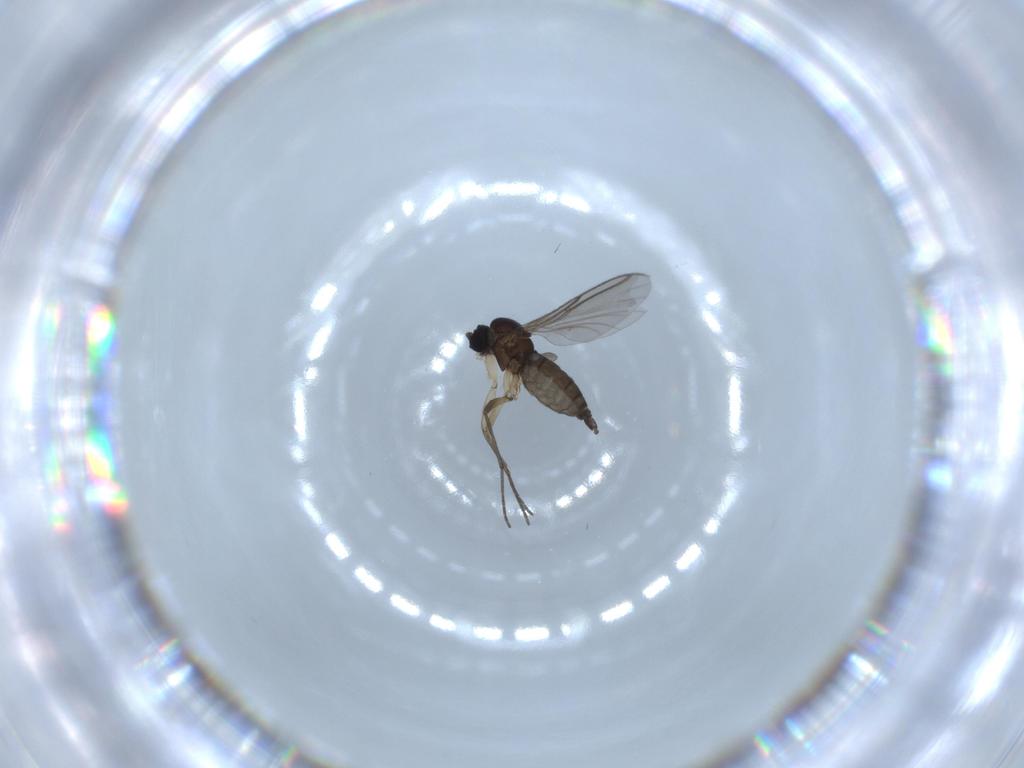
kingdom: Animalia
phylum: Arthropoda
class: Insecta
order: Diptera
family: Sciaridae
